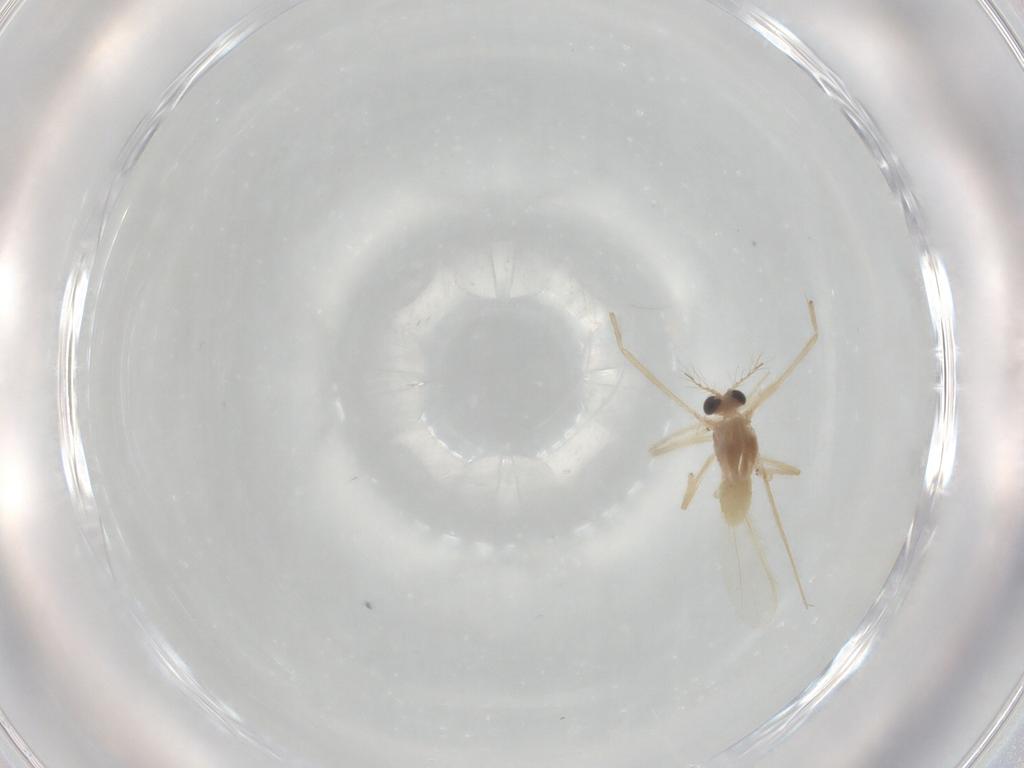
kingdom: Animalia
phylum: Arthropoda
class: Insecta
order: Diptera
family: Chironomidae
